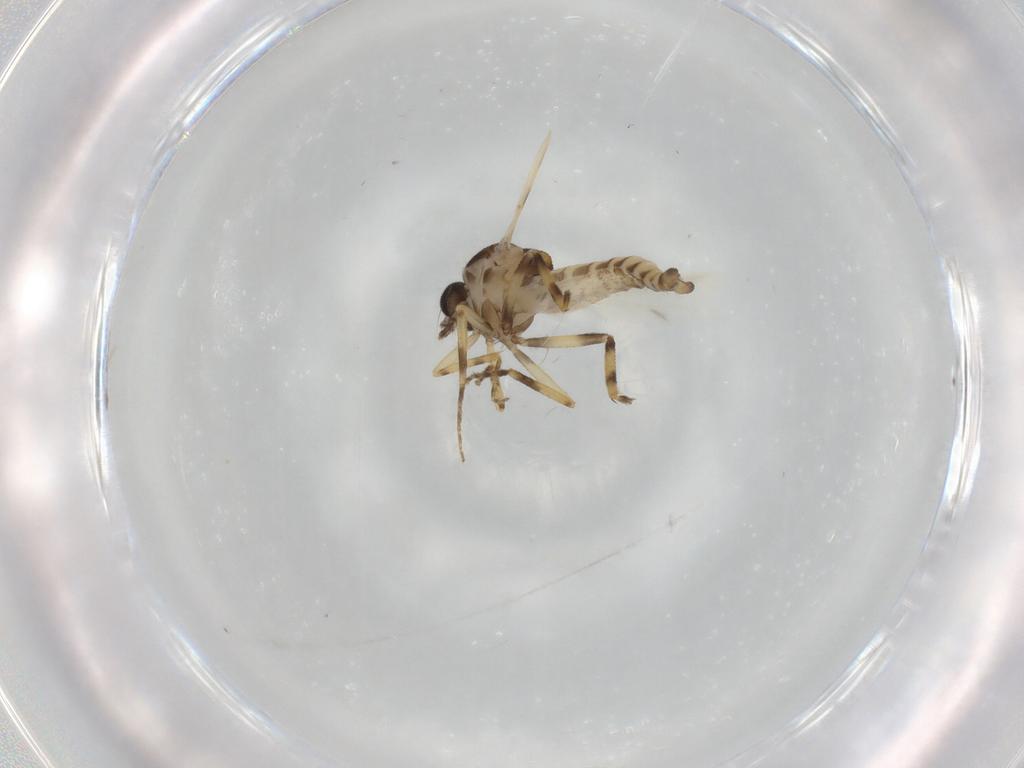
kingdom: Animalia
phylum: Arthropoda
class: Insecta
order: Diptera
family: Ceratopogonidae
